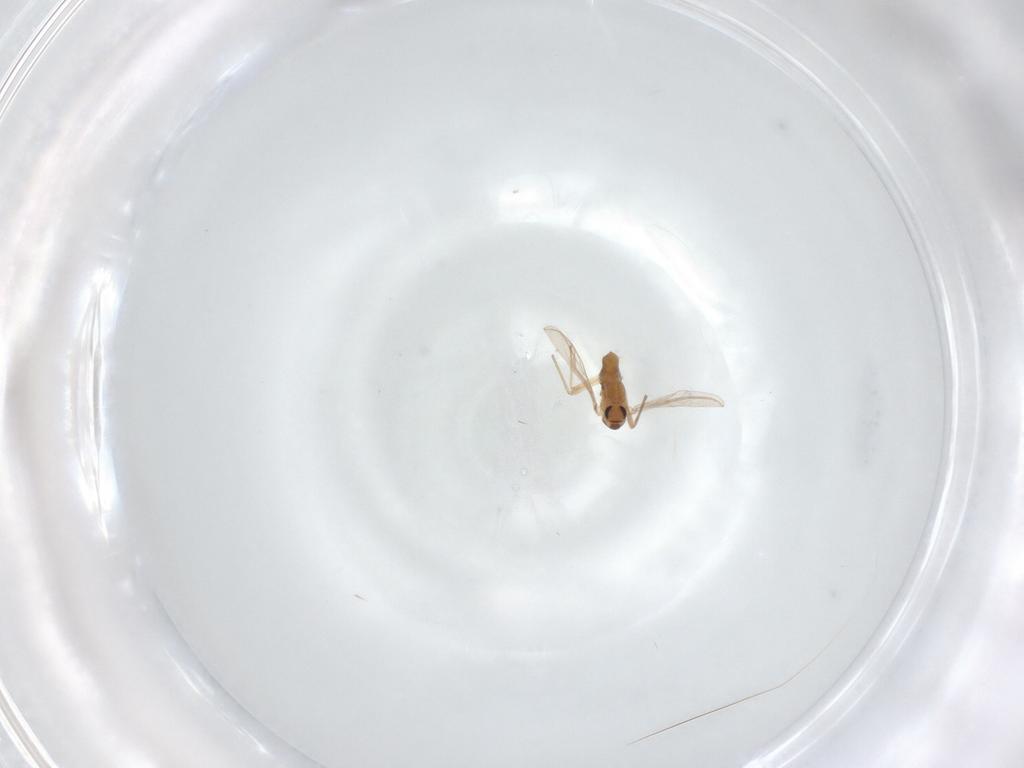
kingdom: Animalia
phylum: Arthropoda
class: Insecta
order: Diptera
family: Chironomidae
